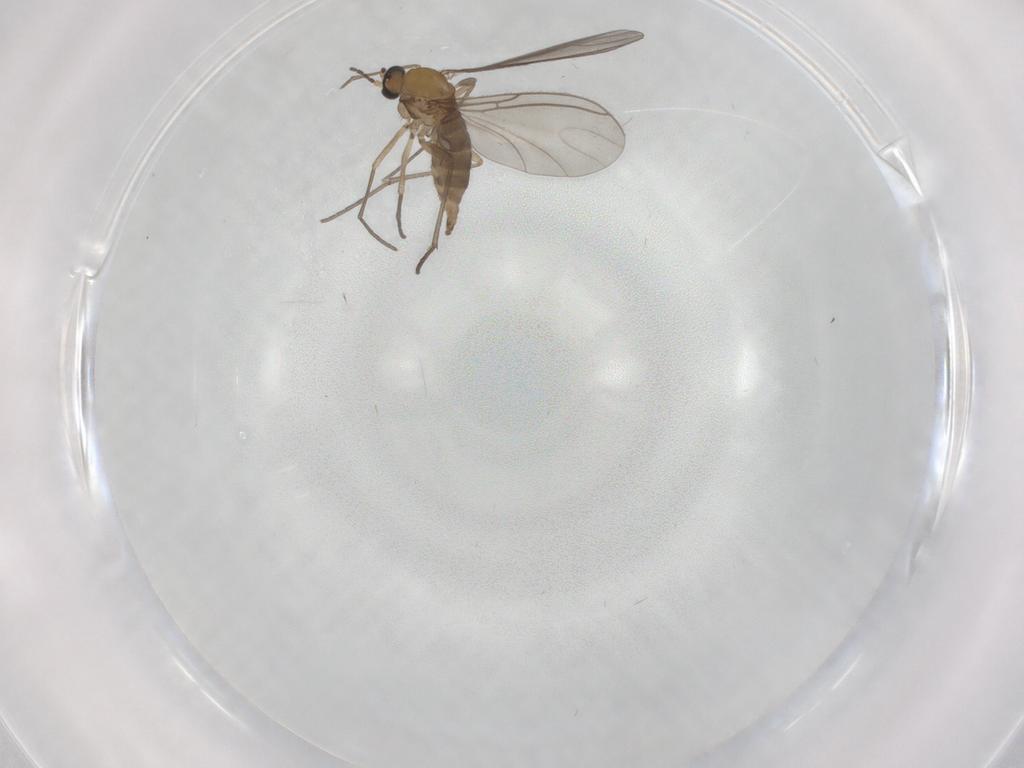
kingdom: Animalia
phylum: Arthropoda
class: Insecta
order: Diptera
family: Sciaridae
